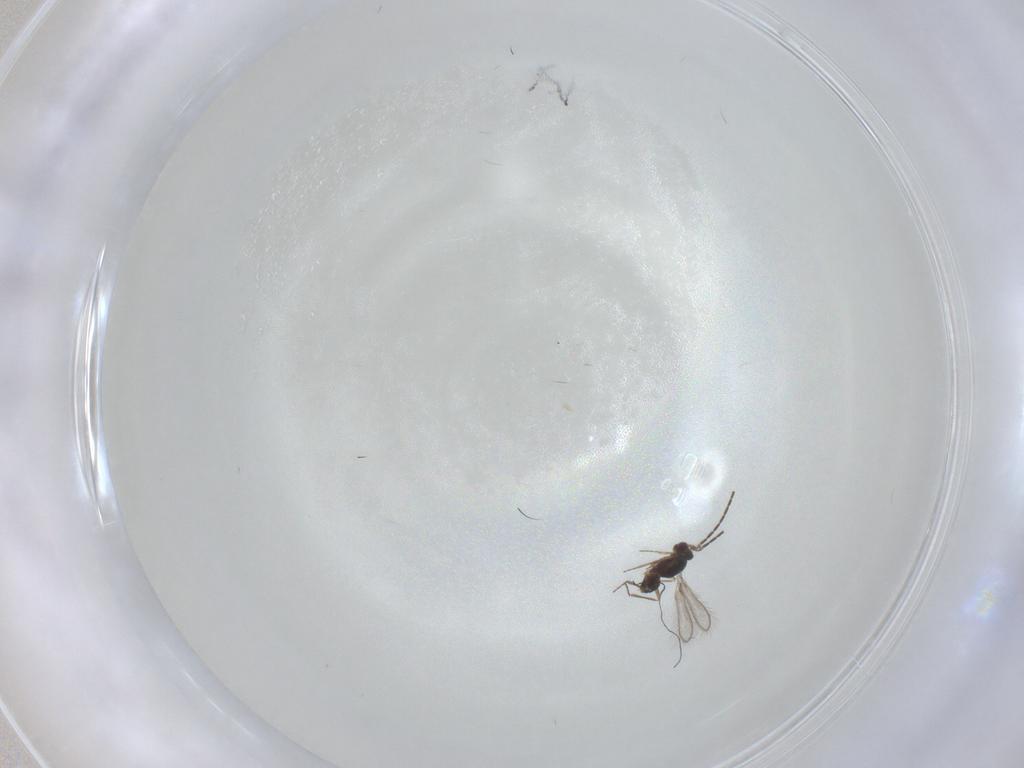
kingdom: Animalia
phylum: Arthropoda
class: Insecta
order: Hymenoptera
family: Mymaridae
